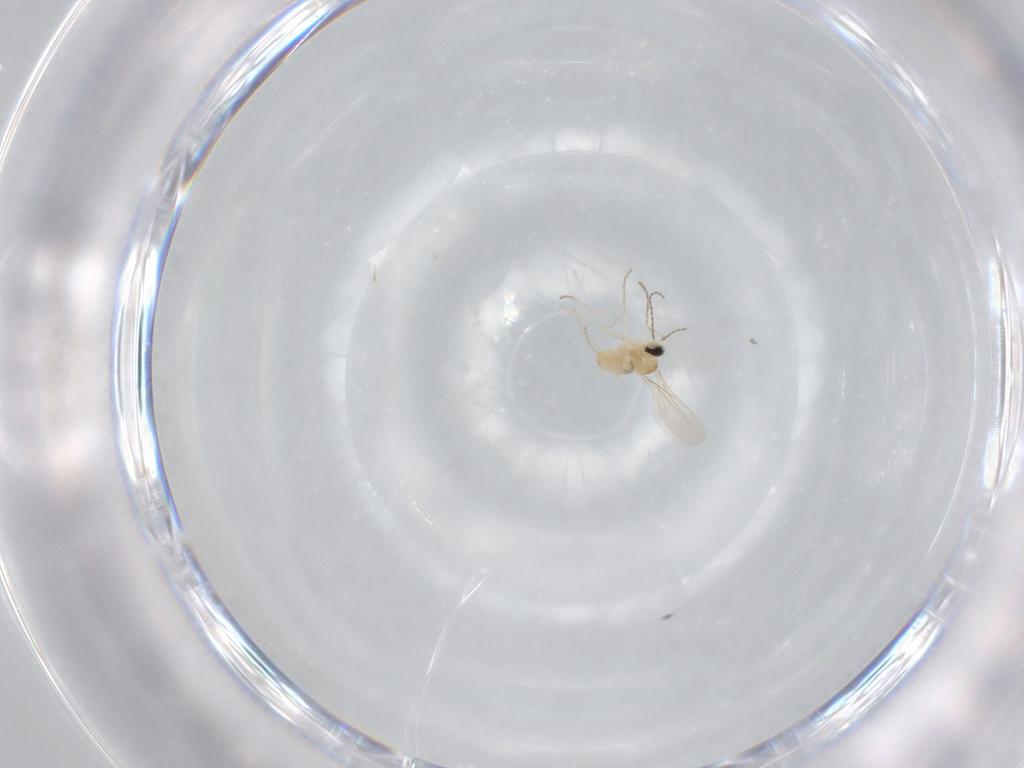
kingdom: Animalia
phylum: Arthropoda
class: Insecta
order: Diptera
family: Cecidomyiidae
